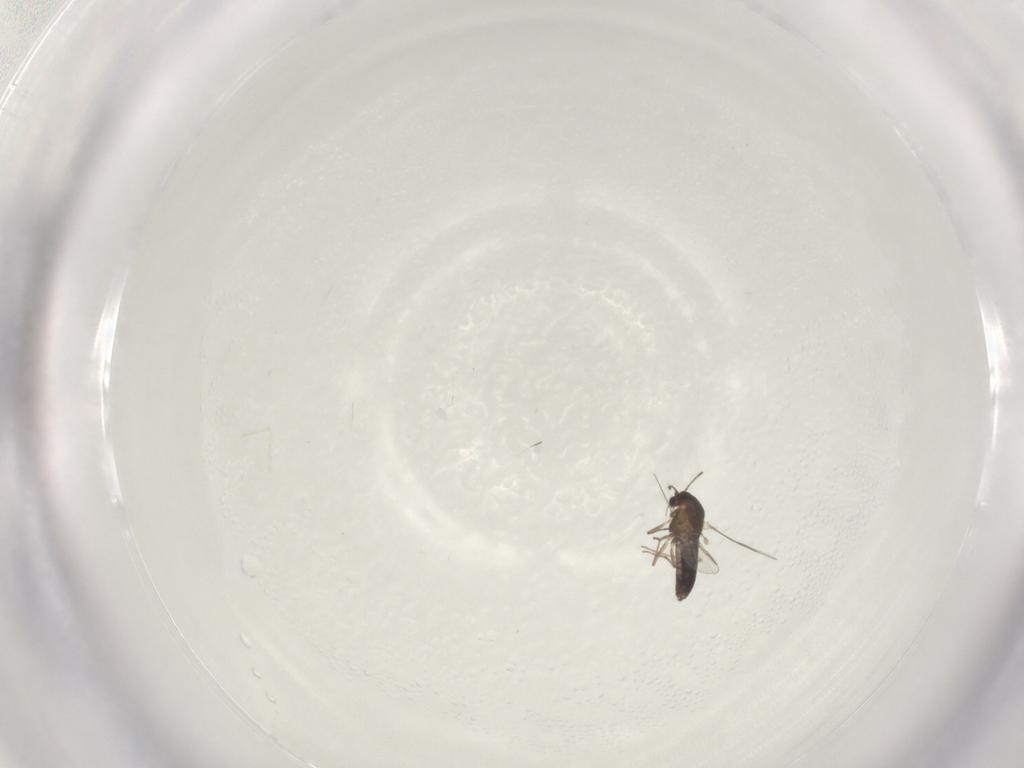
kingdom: Animalia
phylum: Arthropoda
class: Insecta
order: Diptera
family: Chironomidae
